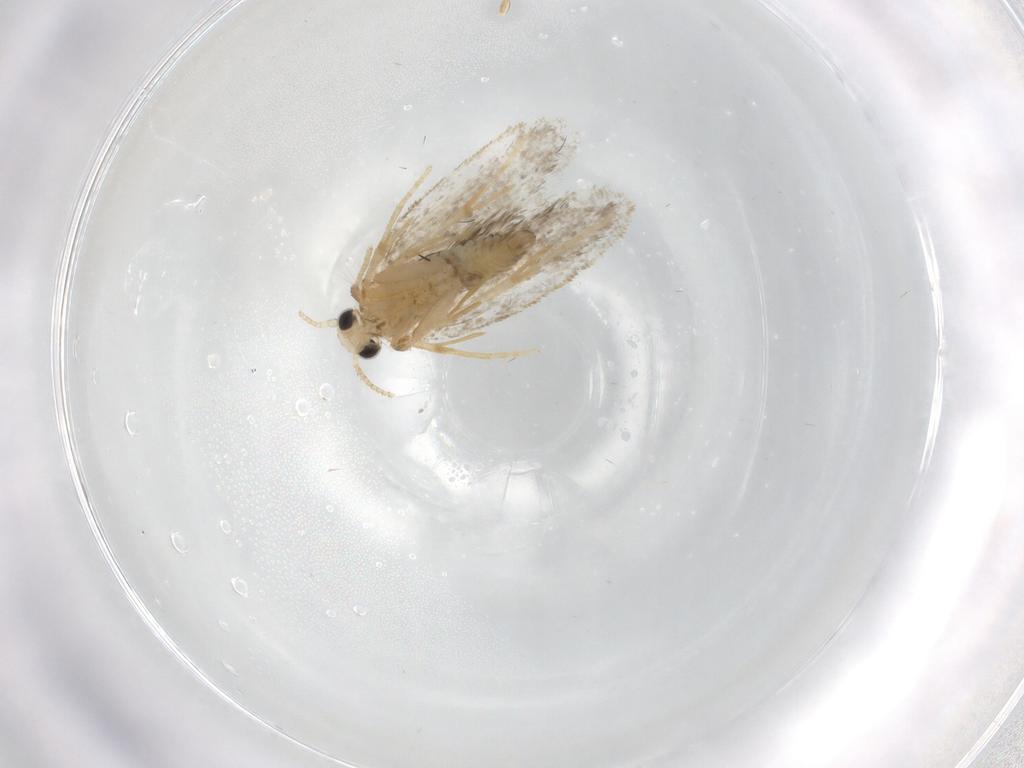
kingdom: Animalia
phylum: Arthropoda
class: Insecta
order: Lepidoptera
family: Psychidae
